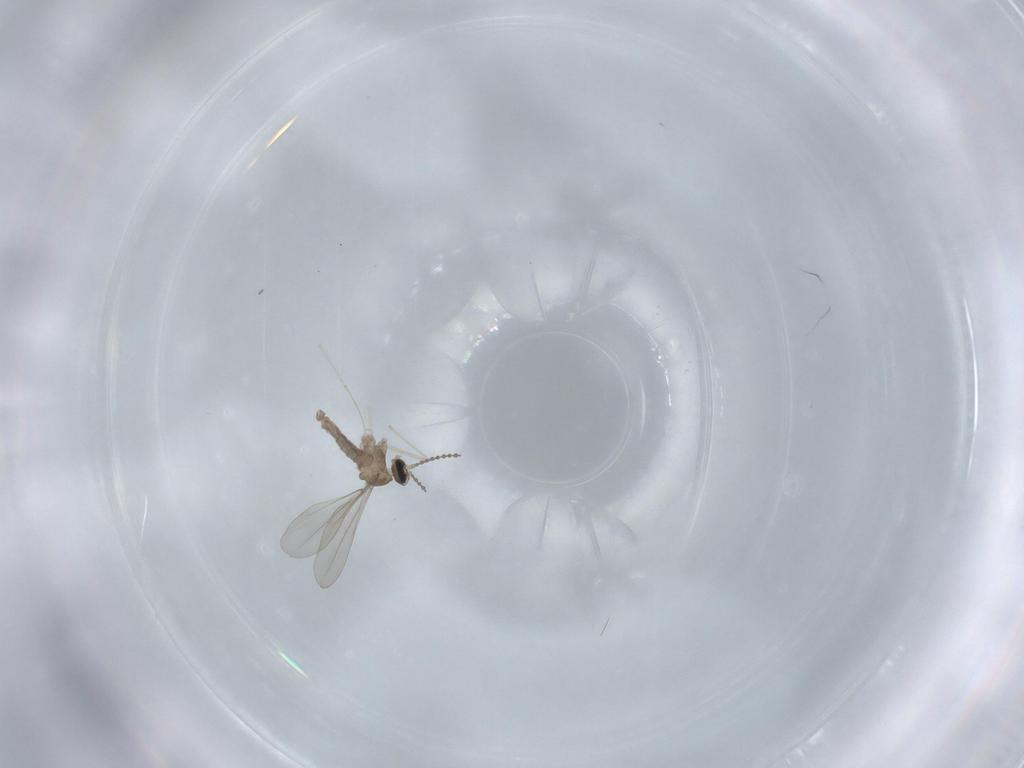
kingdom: Animalia
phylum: Arthropoda
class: Insecta
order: Diptera
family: Cecidomyiidae
